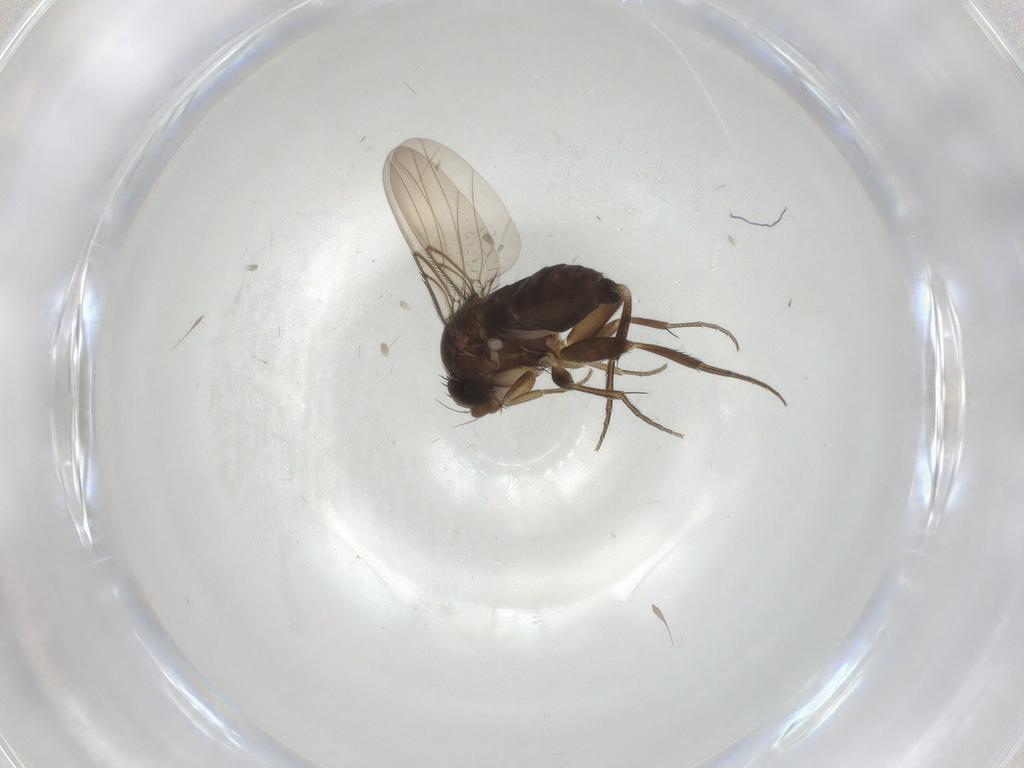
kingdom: Animalia
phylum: Arthropoda
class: Insecta
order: Diptera
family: Phoridae
